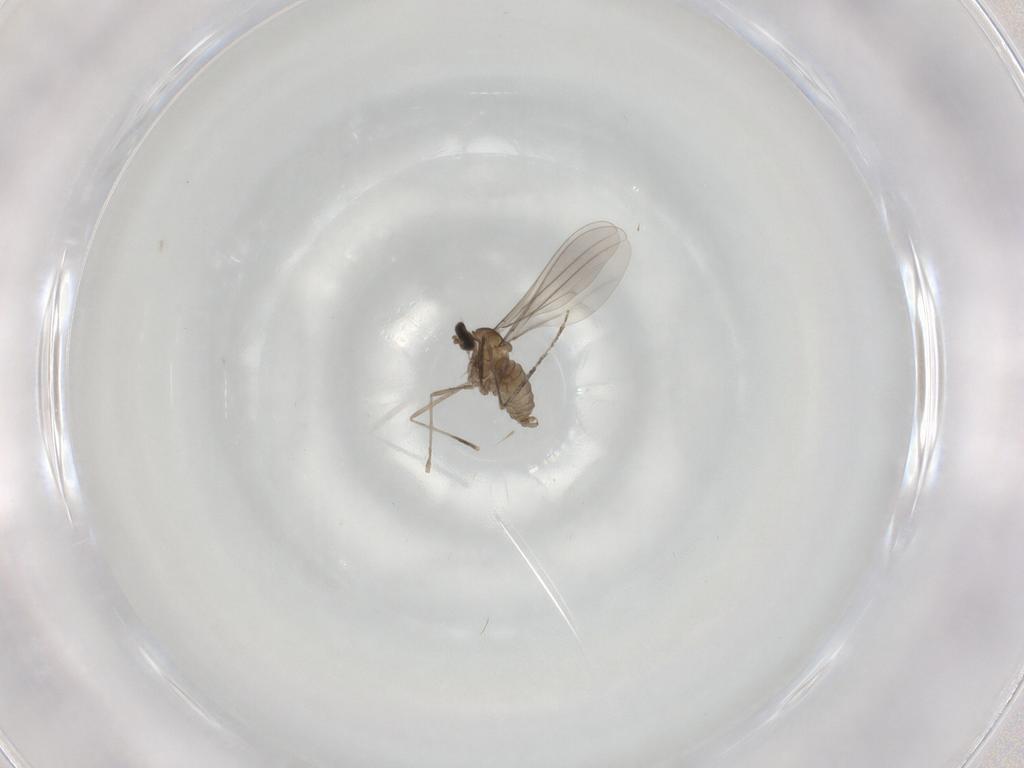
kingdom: Animalia
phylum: Arthropoda
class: Insecta
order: Diptera
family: Cecidomyiidae
